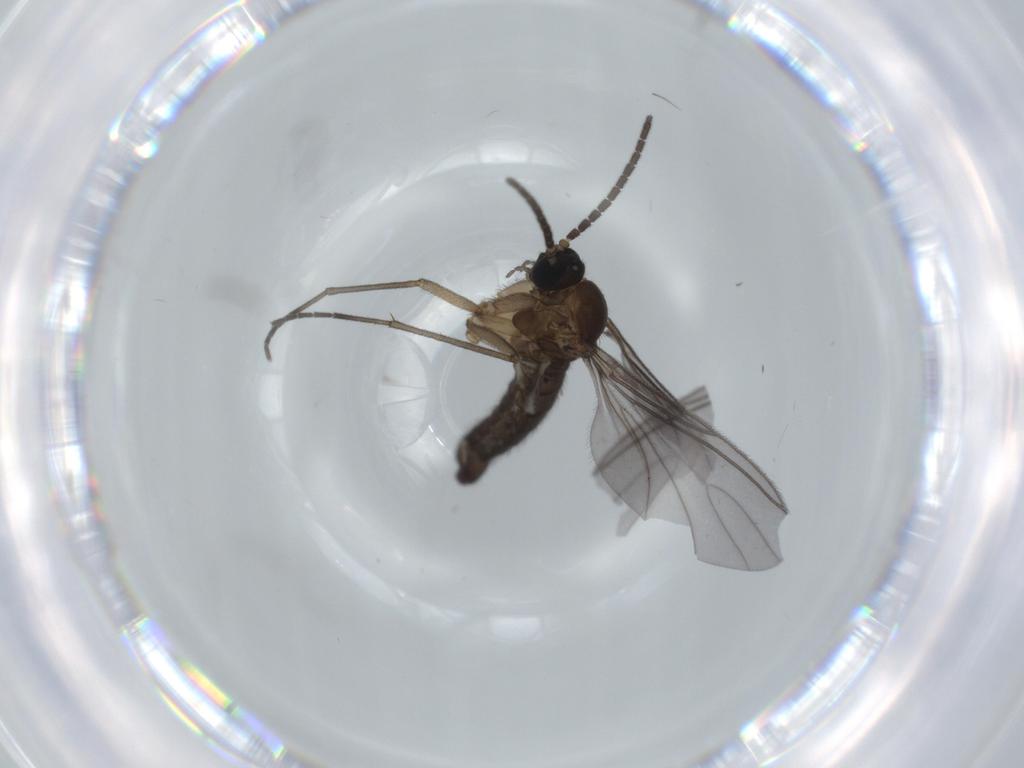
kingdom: Animalia
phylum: Arthropoda
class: Insecta
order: Diptera
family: Sciaridae
